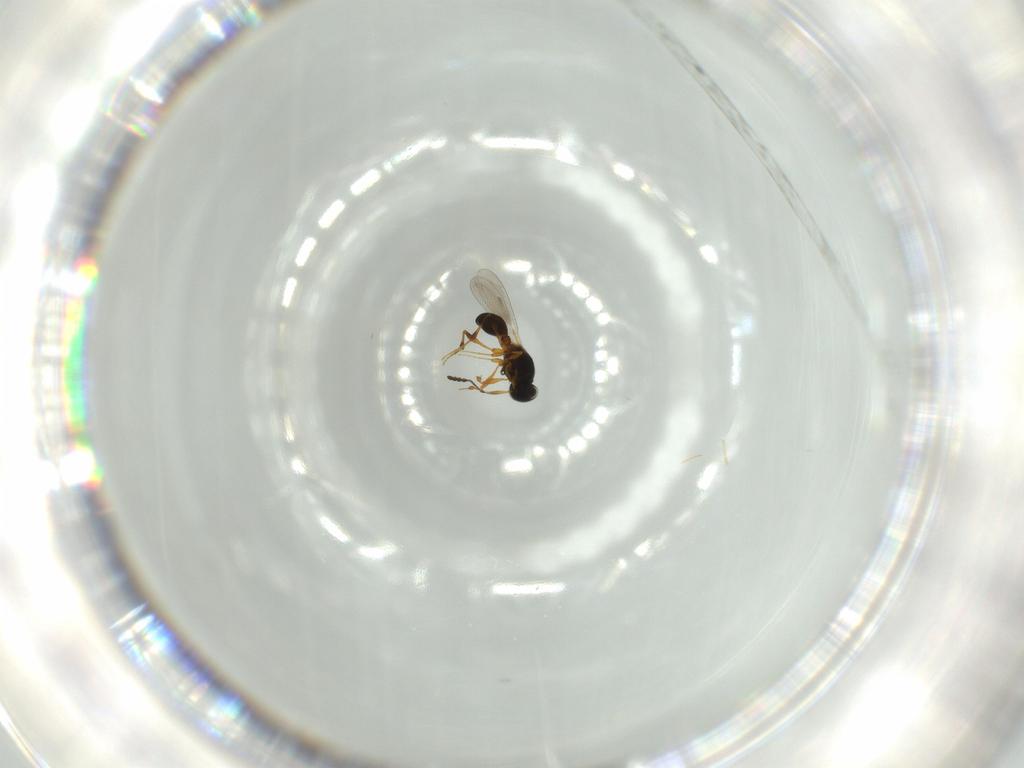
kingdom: Animalia
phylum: Arthropoda
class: Insecta
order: Hymenoptera
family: Platygastridae
